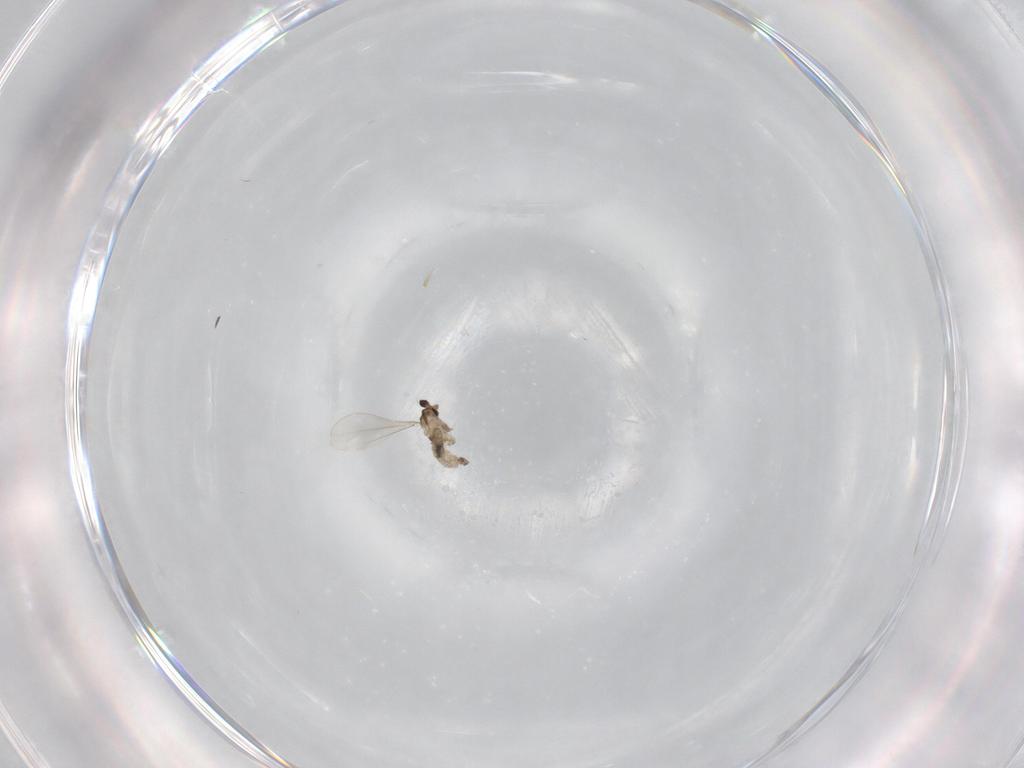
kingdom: Animalia
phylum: Arthropoda
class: Insecta
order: Diptera
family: Cecidomyiidae
